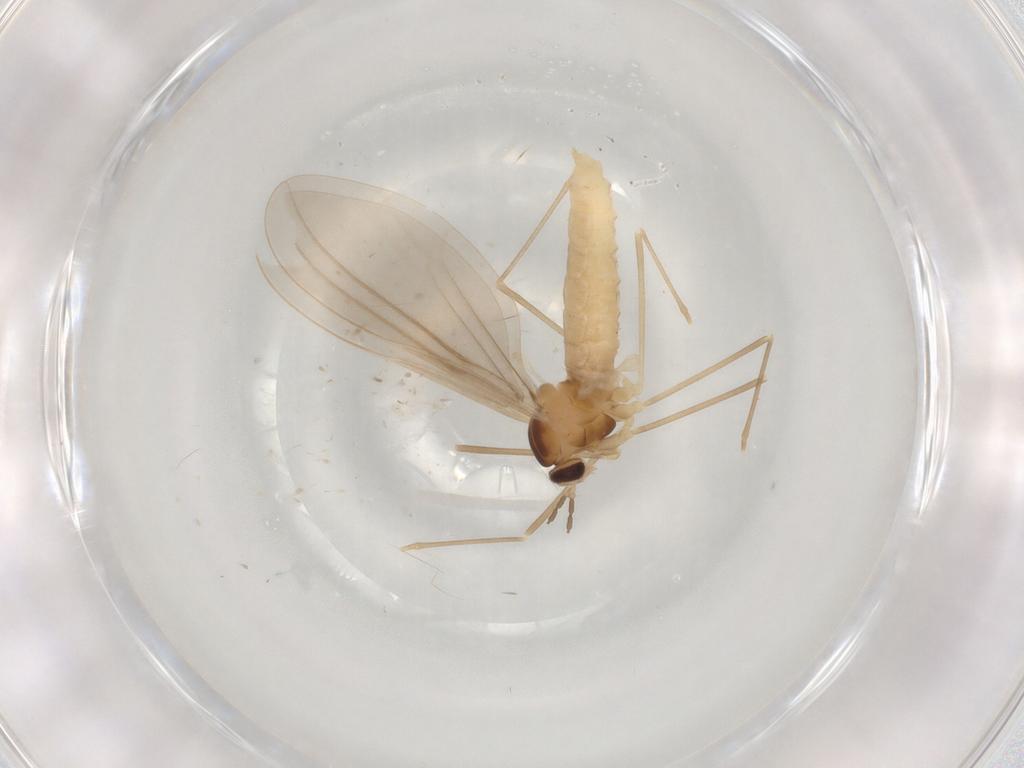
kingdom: Animalia
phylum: Arthropoda
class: Insecta
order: Diptera
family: Cecidomyiidae
